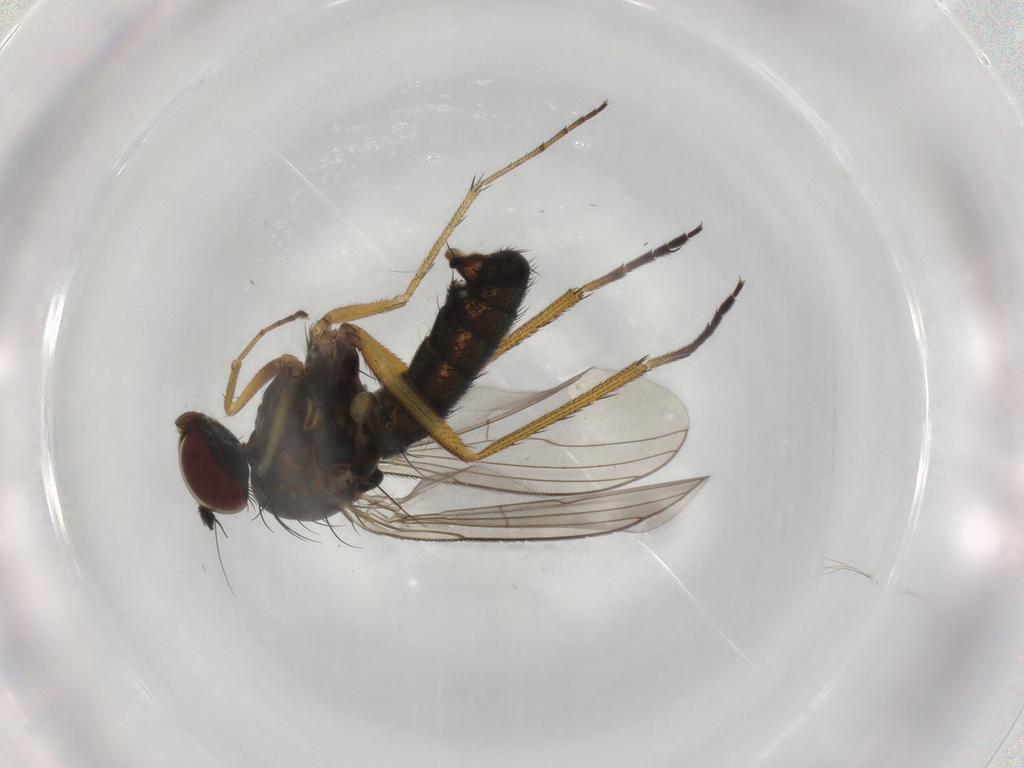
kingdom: Animalia
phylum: Arthropoda
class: Insecta
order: Diptera
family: Dolichopodidae
